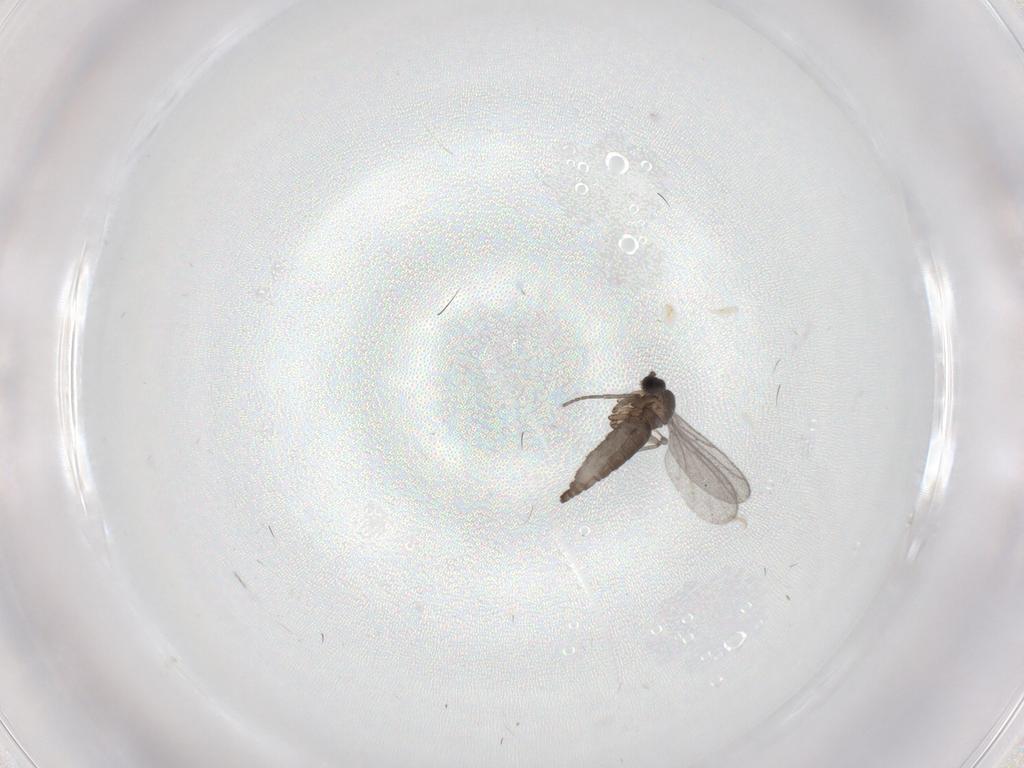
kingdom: Animalia
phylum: Arthropoda
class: Insecta
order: Diptera
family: Sciaridae
